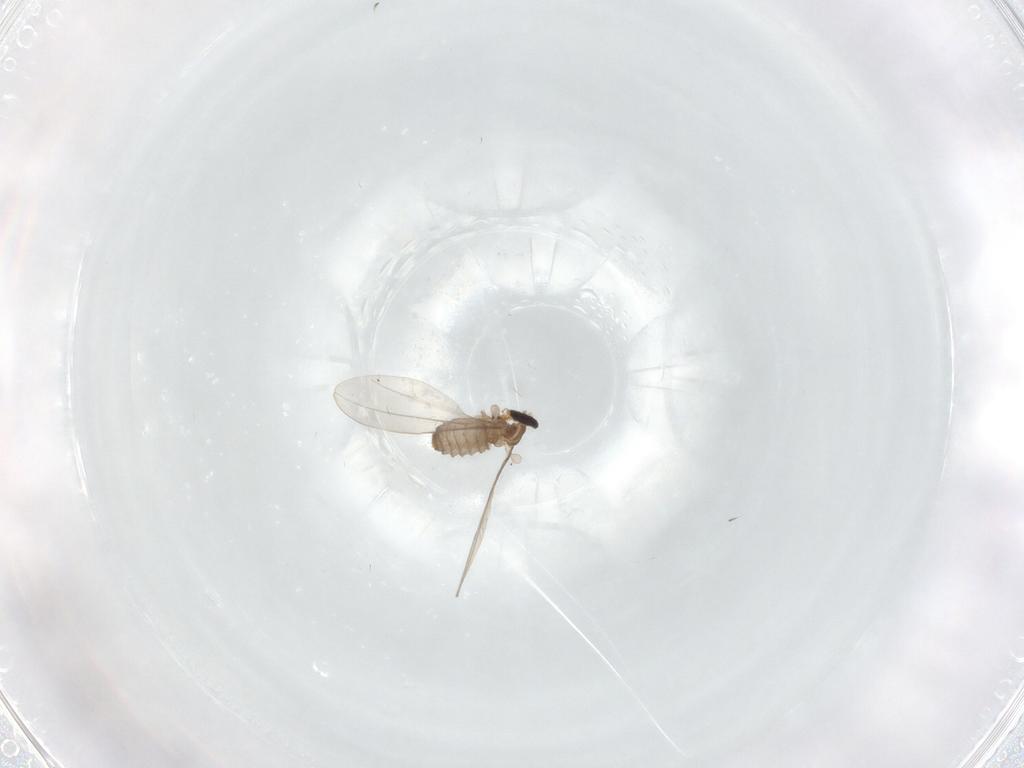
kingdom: Animalia
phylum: Arthropoda
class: Insecta
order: Diptera
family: Cecidomyiidae
